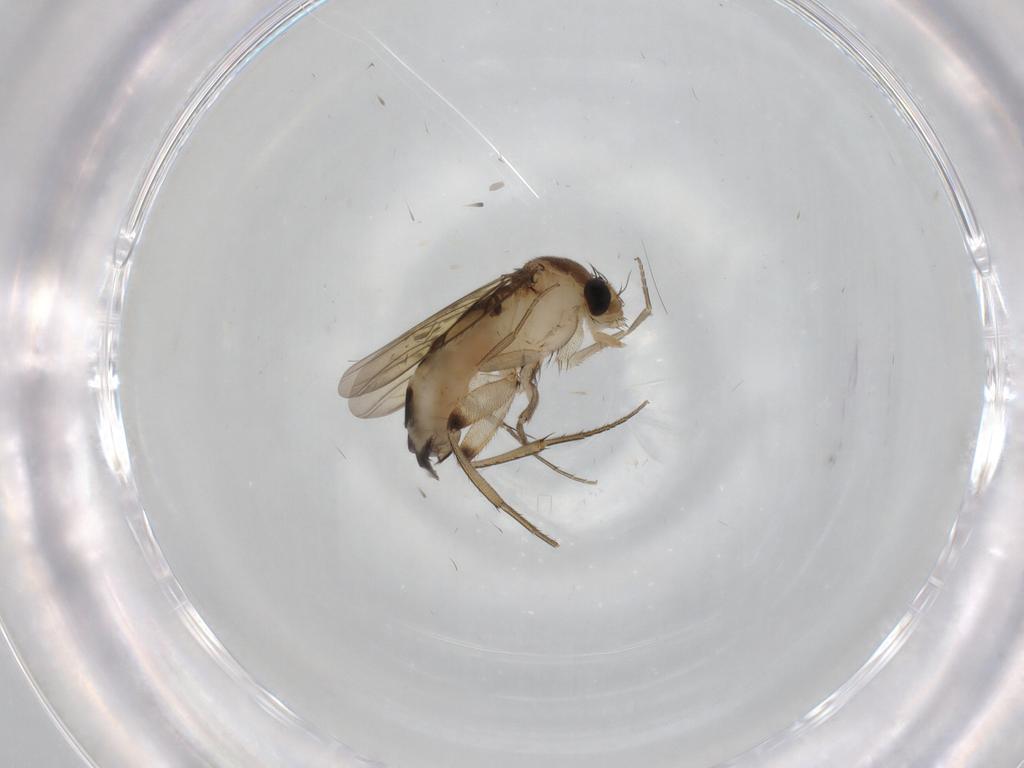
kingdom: Animalia
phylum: Arthropoda
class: Insecta
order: Diptera
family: Phoridae
